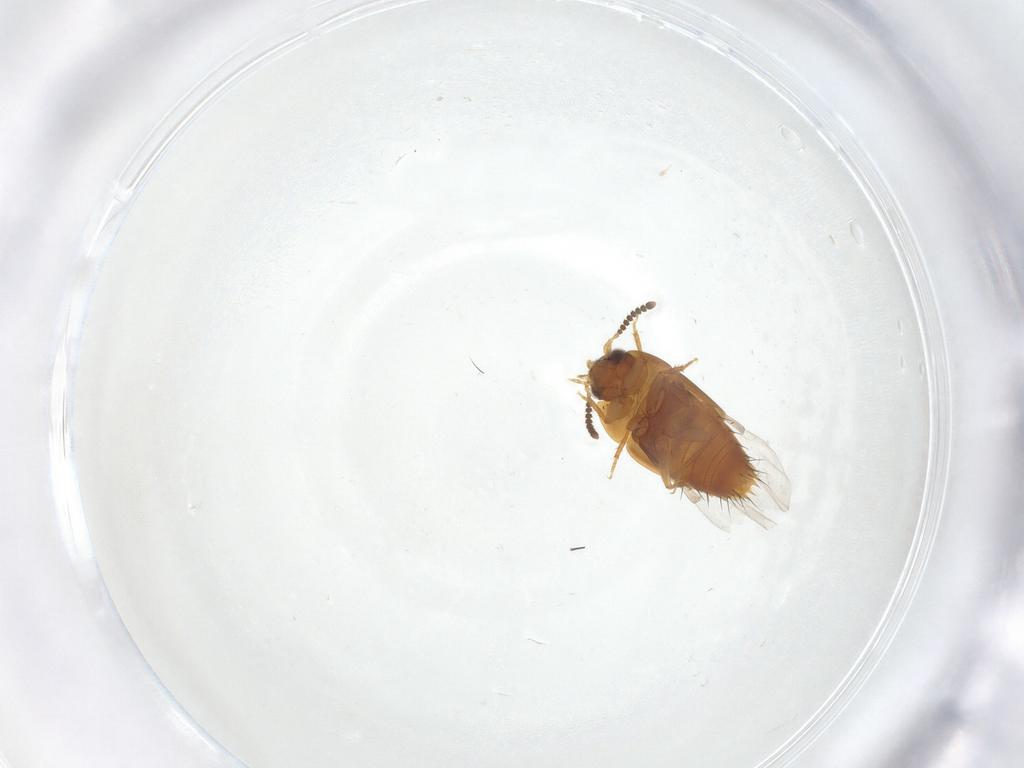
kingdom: Animalia
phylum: Arthropoda
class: Insecta
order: Coleoptera
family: Staphylinidae
